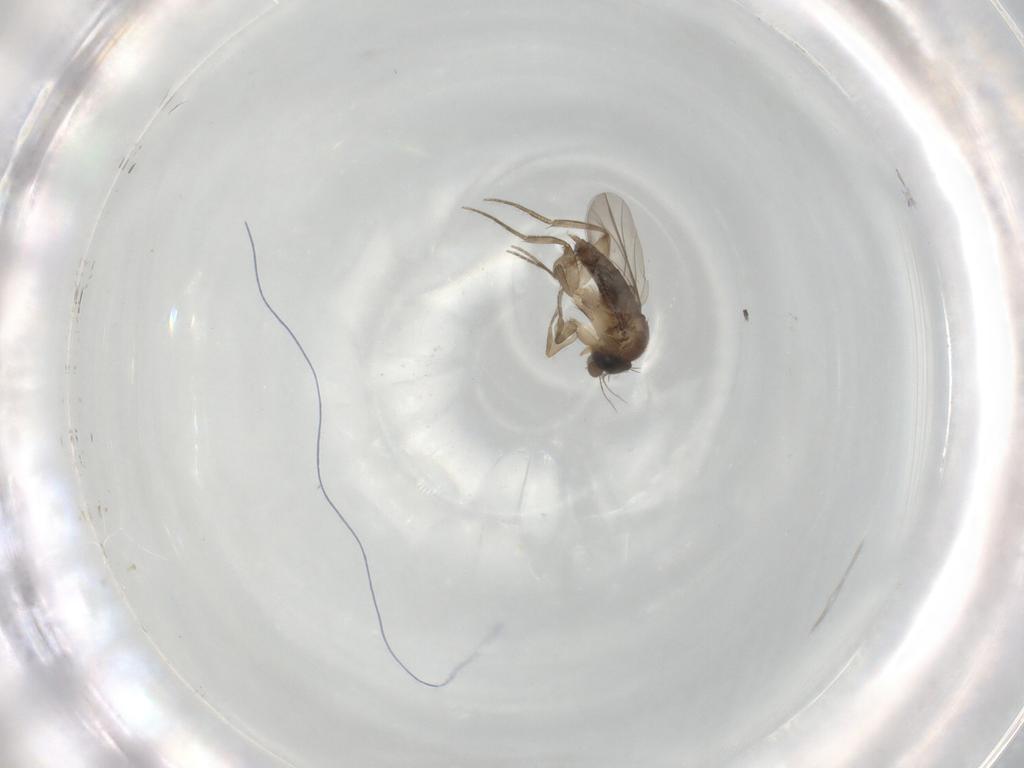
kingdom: Animalia
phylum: Arthropoda
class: Insecta
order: Diptera
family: Phoridae
